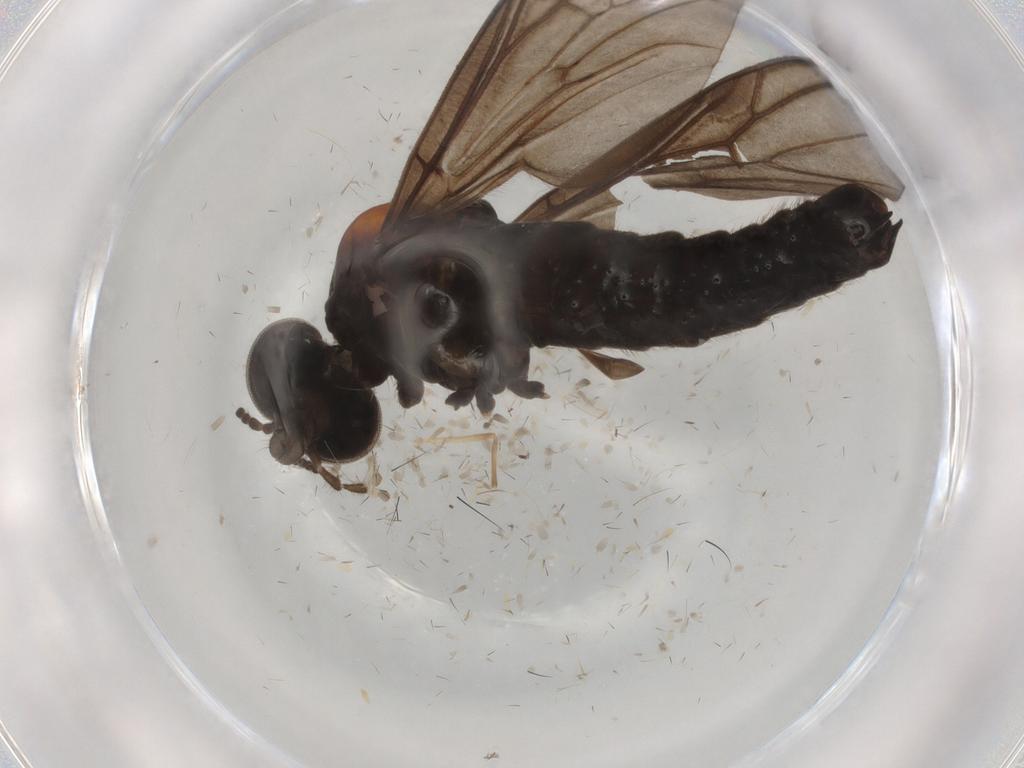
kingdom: Animalia
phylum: Arthropoda
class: Insecta
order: Diptera
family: Mycetophilidae
